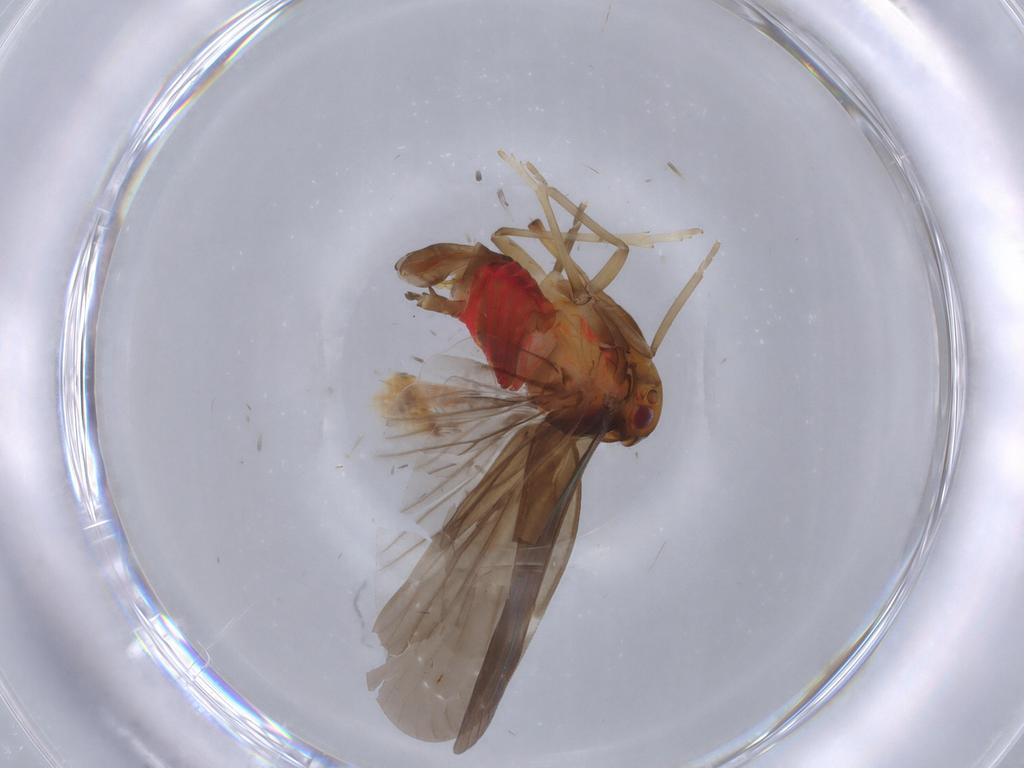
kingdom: Animalia
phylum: Arthropoda
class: Insecta
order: Hemiptera
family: Derbidae
